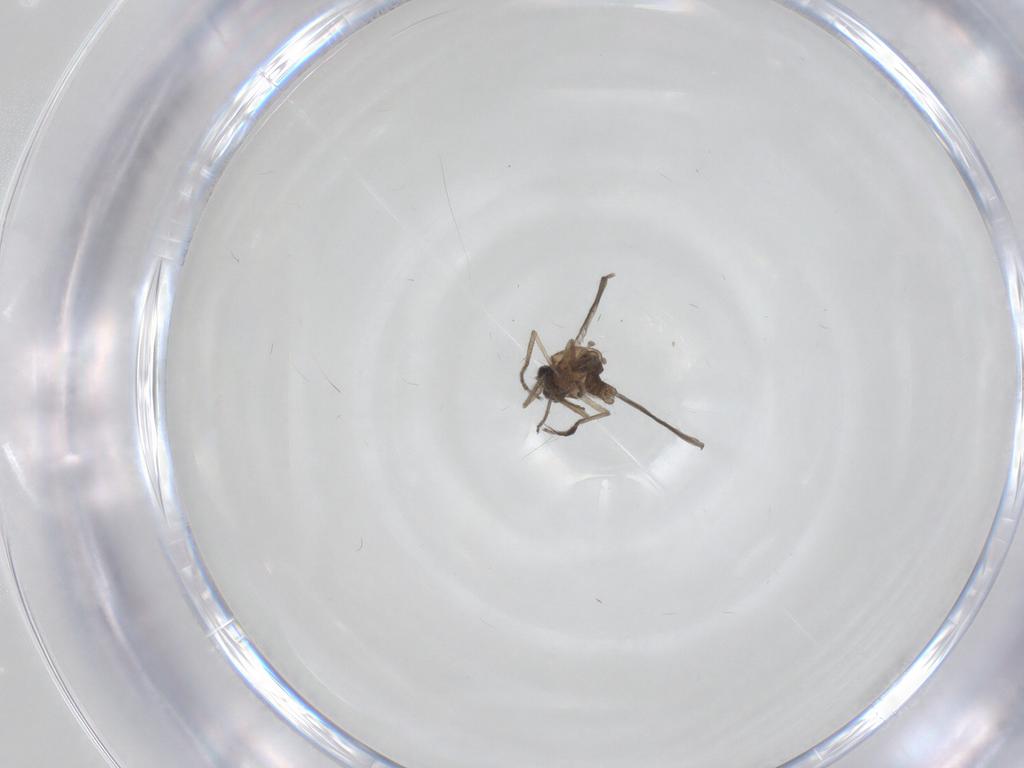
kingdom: Animalia
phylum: Arthropoda
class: Insecta
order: Diptera
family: Ceratopogonidae
